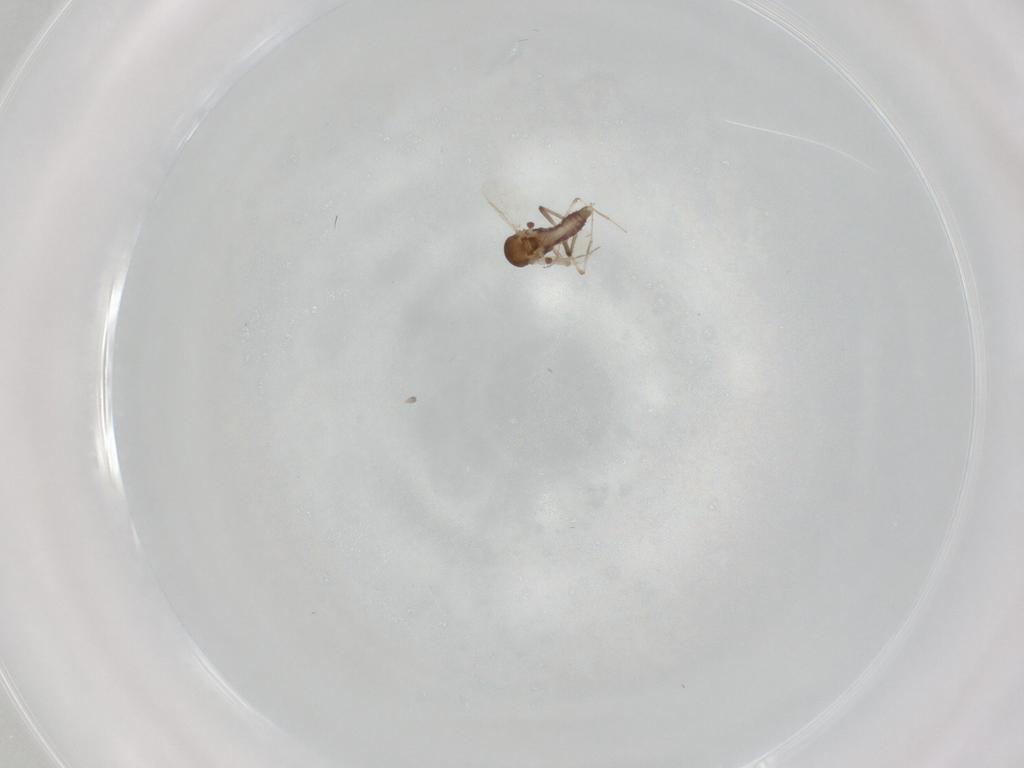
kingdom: Animalia
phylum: Arthropoda
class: Insecta
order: Diptera
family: Ceratopogonidae
